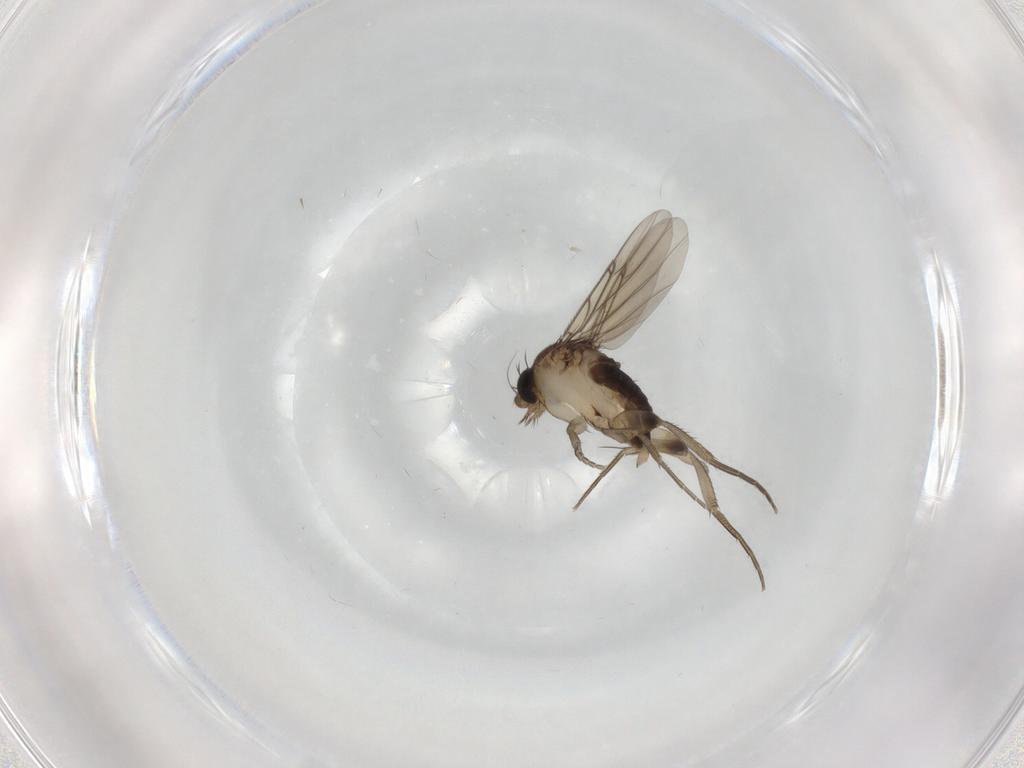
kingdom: Animalia
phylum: Arthropoda
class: Insecta
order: Diptera
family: Phoridae
